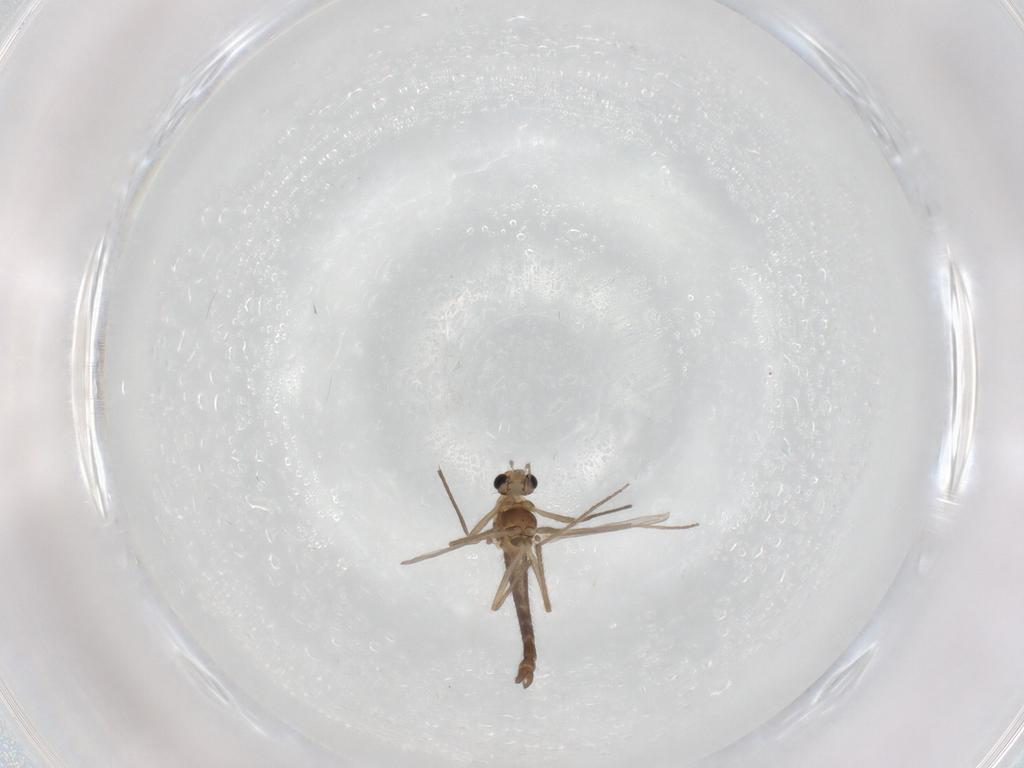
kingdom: Animalia
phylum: Arthropoda
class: Insecta
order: Diptera
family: Chironomidae
